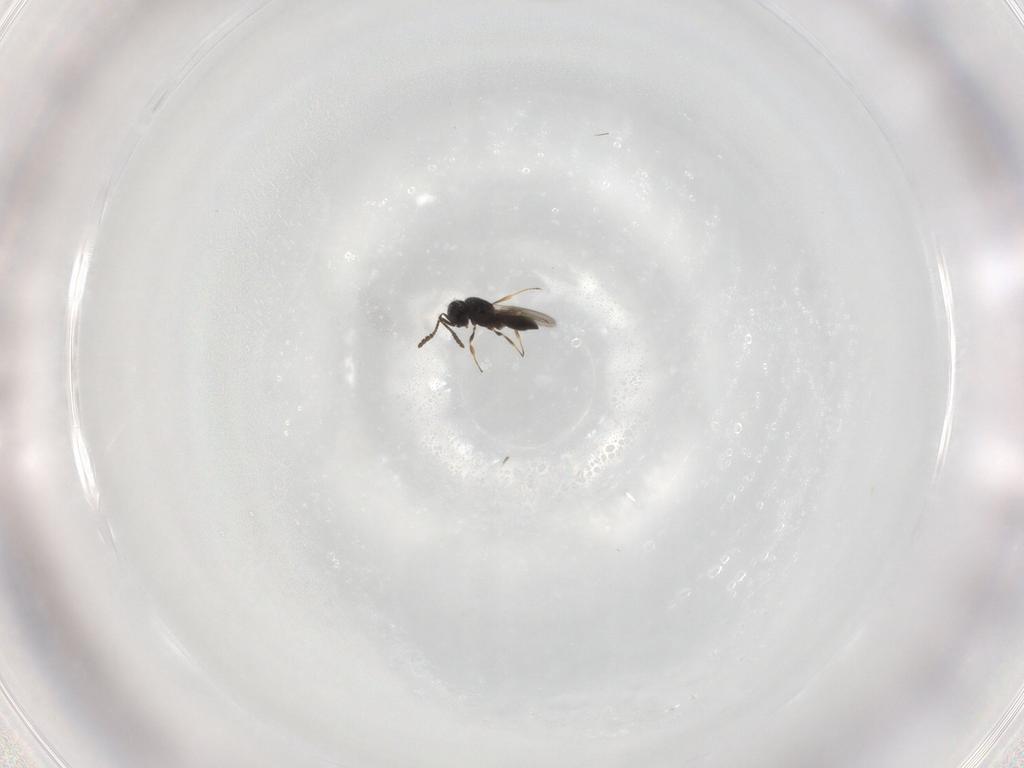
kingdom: Animalia
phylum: Arthropoda
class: Insecta
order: Hymenoptera
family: Scelionidae
